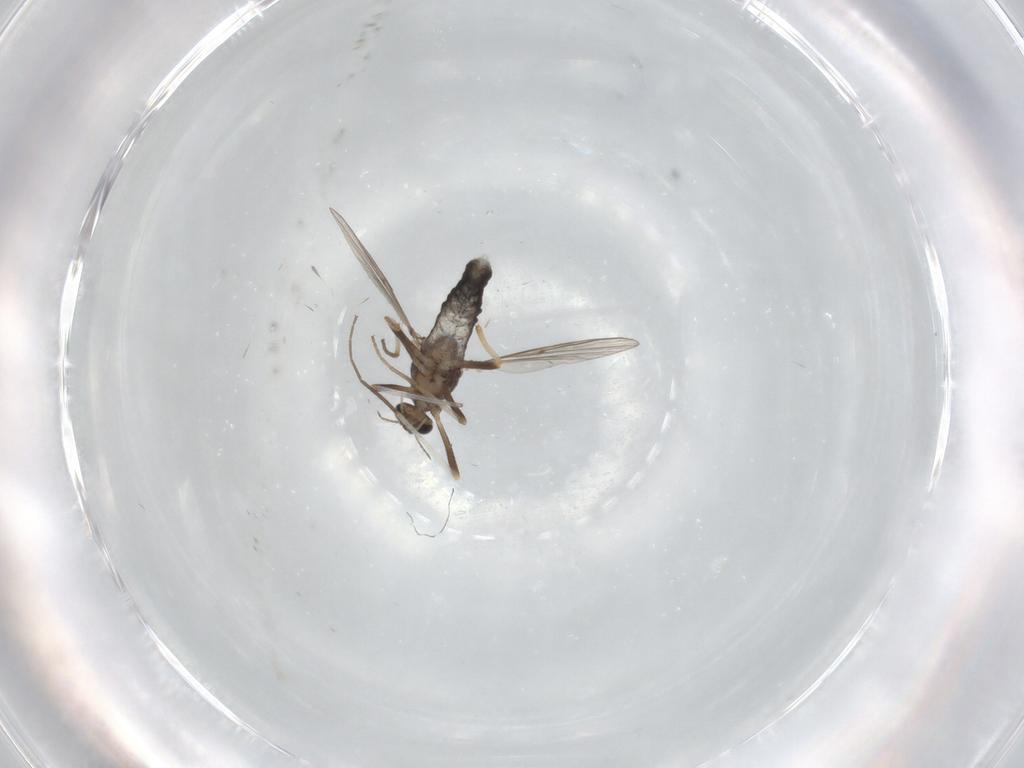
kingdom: Animalia
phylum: Arthropoda
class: Insecta
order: Diptera
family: Chironomidae
